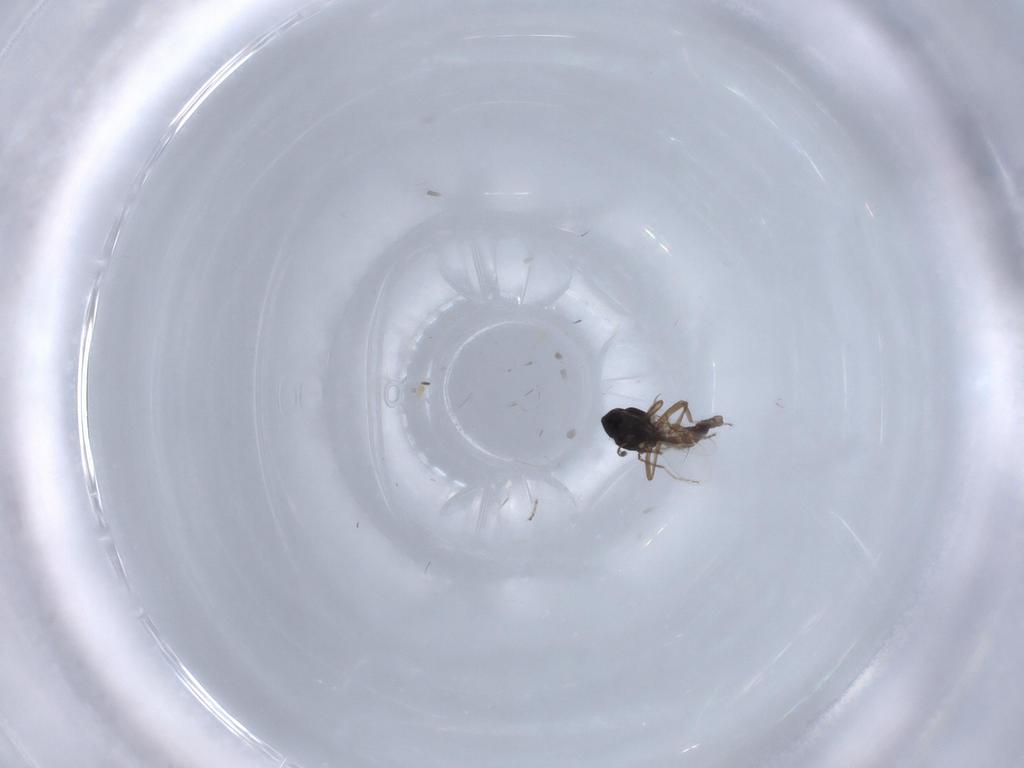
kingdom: Animalia
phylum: Arthropoda
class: Insecta
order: Diptera
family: Ceratopogonidae
